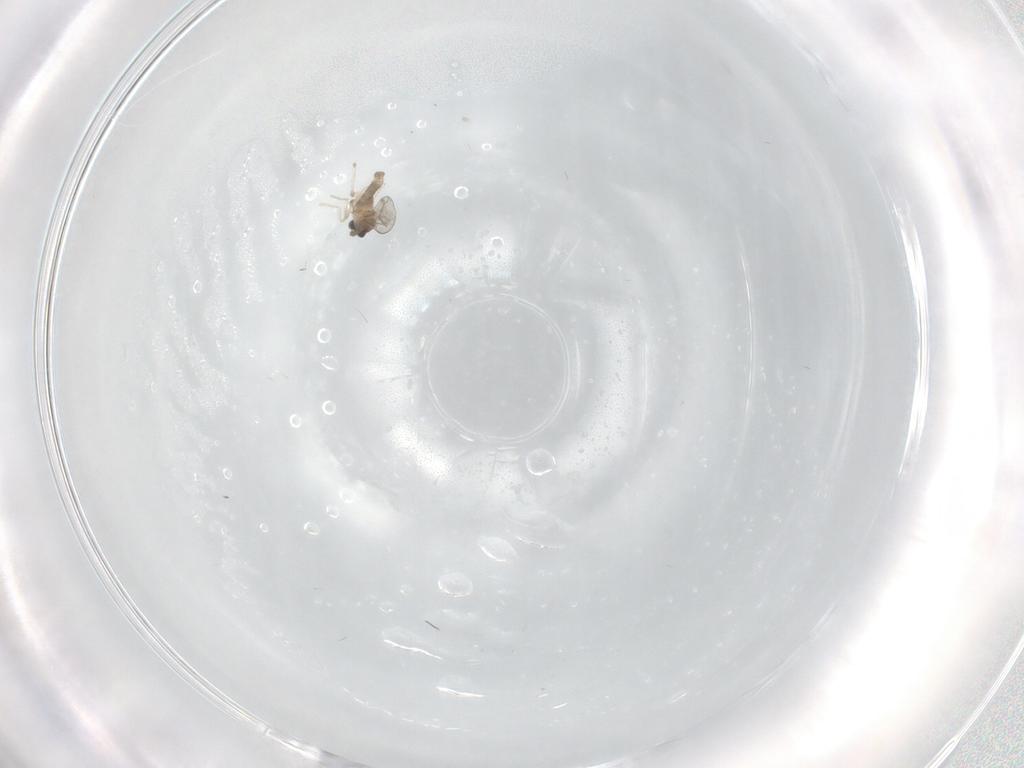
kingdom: Animalia
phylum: Arthropoda
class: Insecta
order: Diptera
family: Cecidomyiidae
